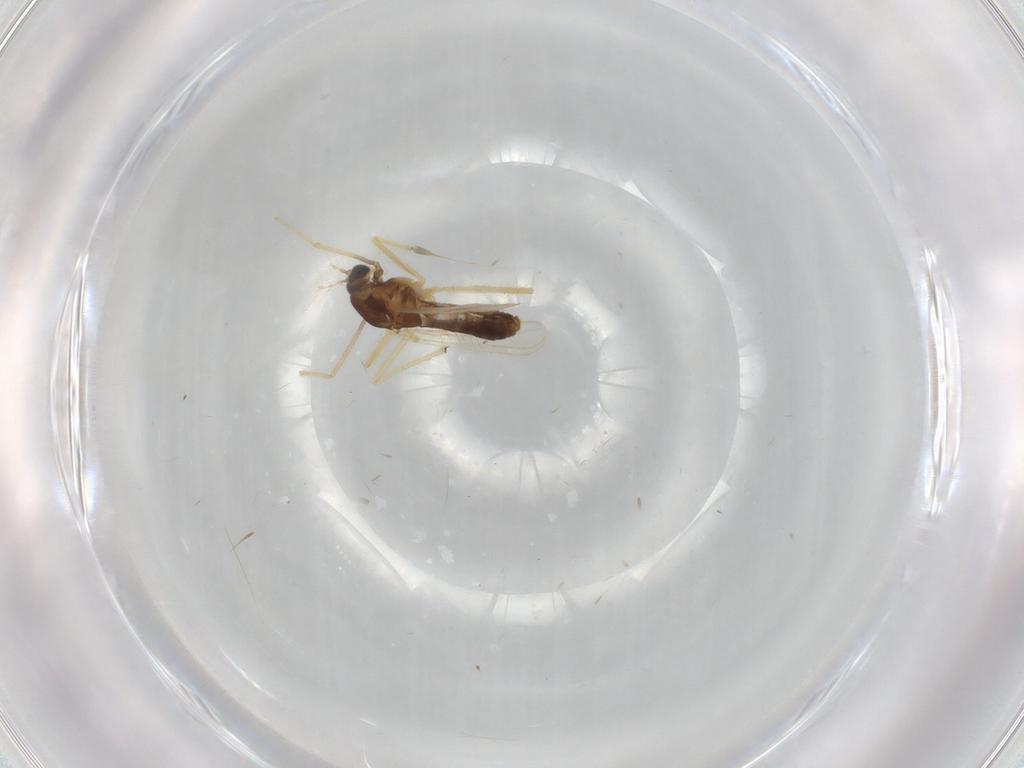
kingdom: Animalia
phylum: Arthropoda
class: Insecta
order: Diptera
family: Chironomidae
